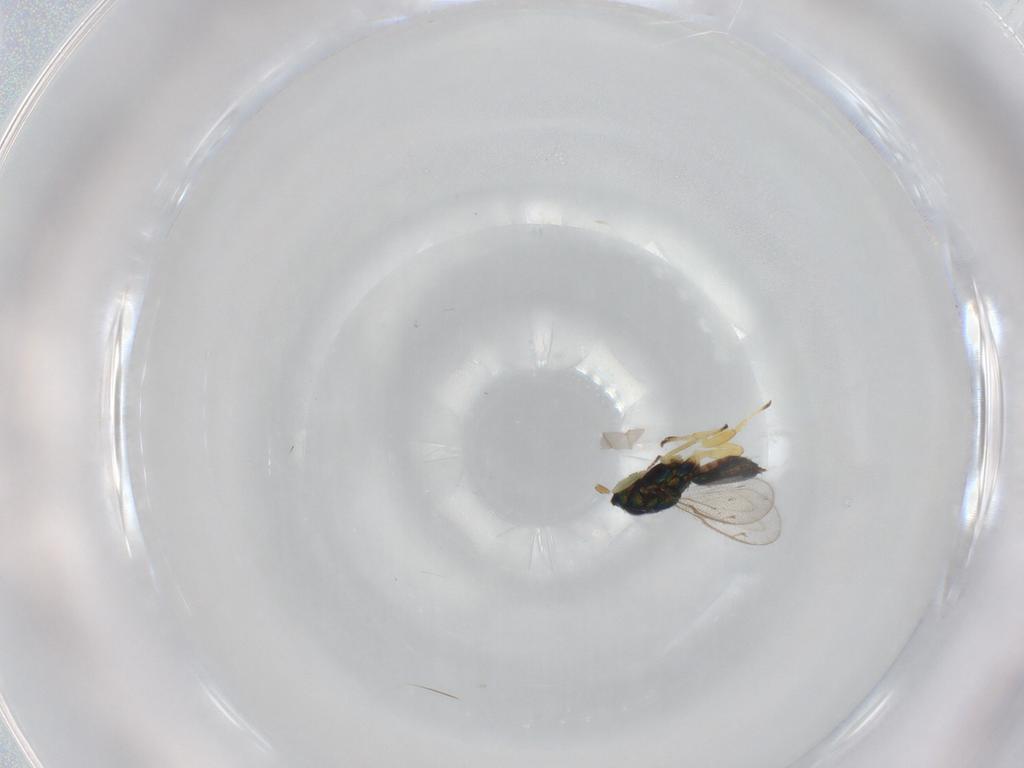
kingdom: Animalia
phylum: Arthropoda
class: Insecta
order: Hymenoptera
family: Eupelmidae
